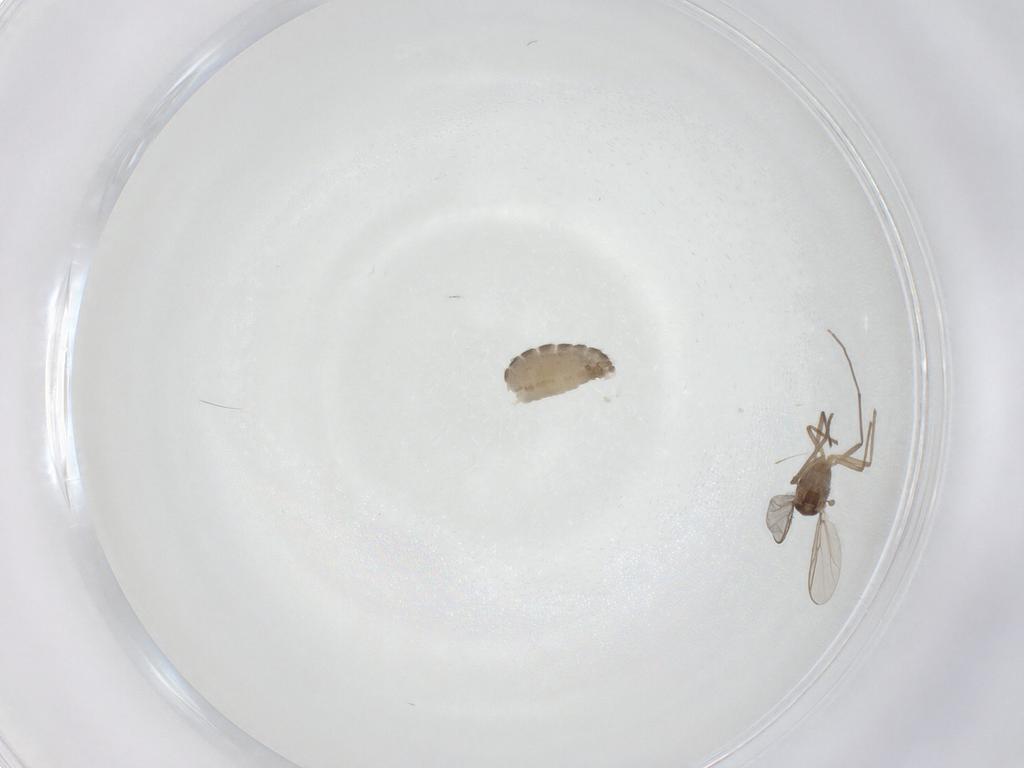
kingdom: Animalia
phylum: Arthropoda
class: Insecta
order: Diptera
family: Chironomidae
